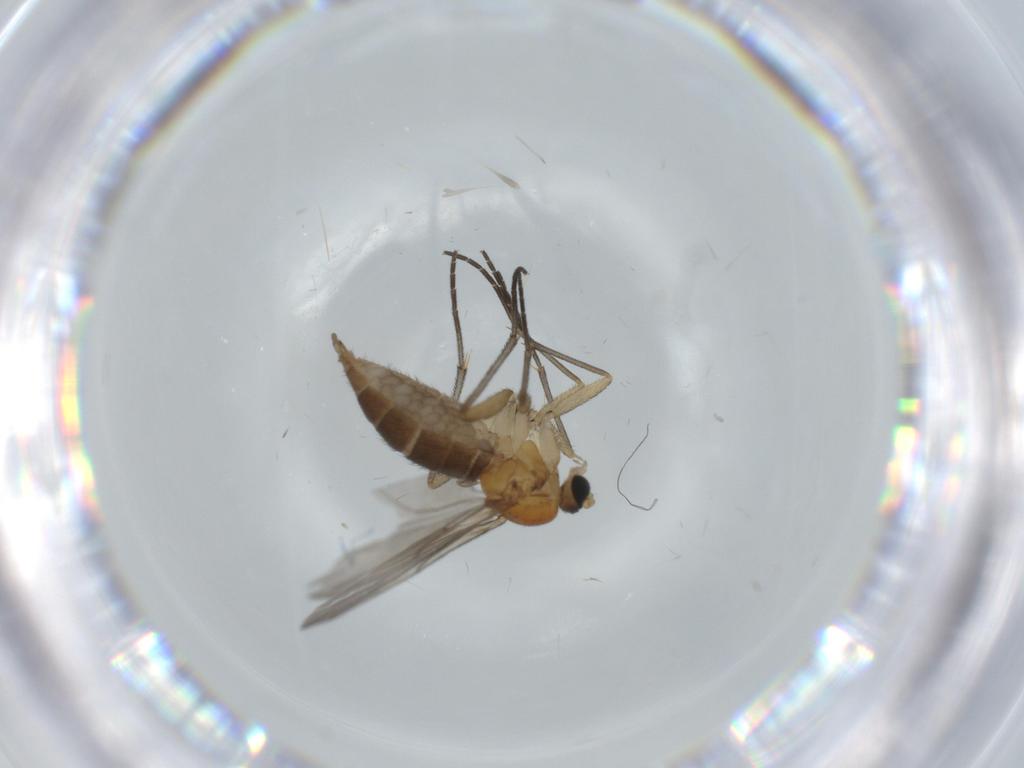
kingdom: Animalia
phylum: Arthropoda
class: Insecta
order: Diptera
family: Sciaridae
